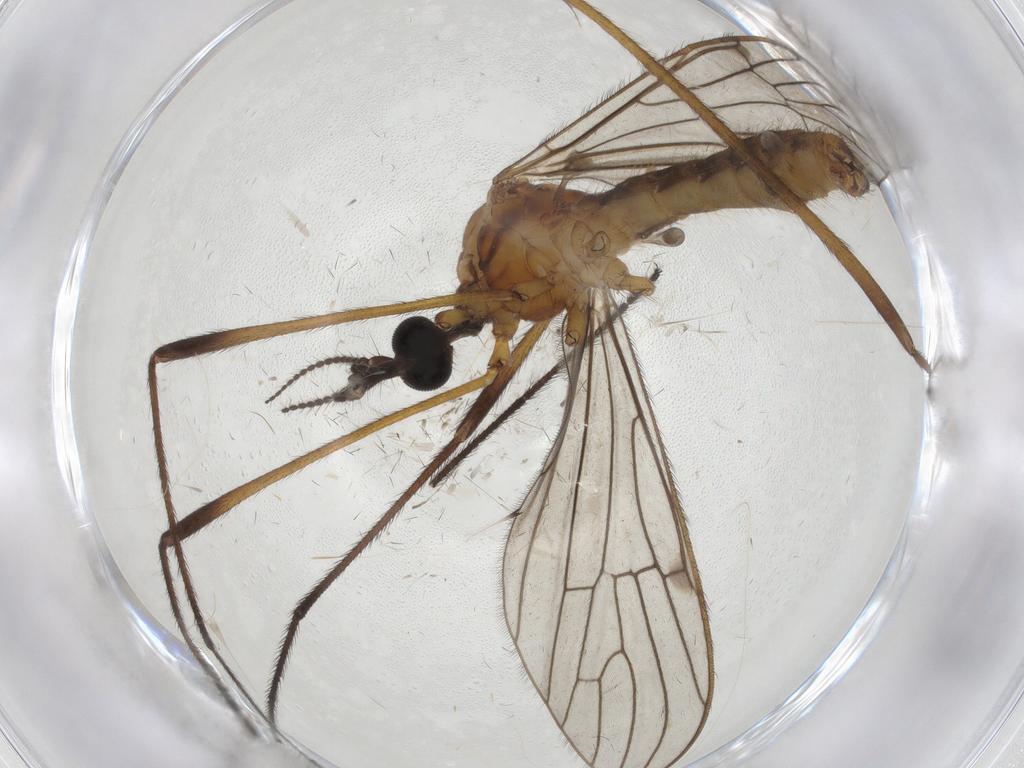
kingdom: Animalia
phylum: Arthropoda
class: Insecta
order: Diptera
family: Limoniidae
